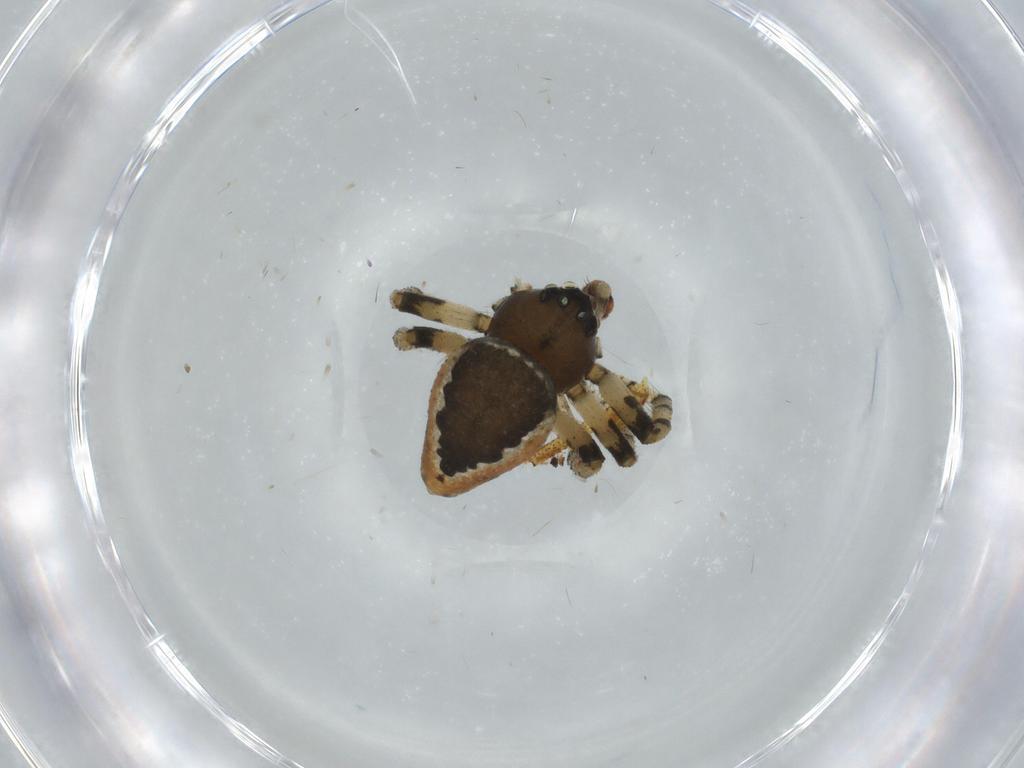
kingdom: Animalia
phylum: Arthropoda
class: Arachnida
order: Araneae
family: Theridiidae
